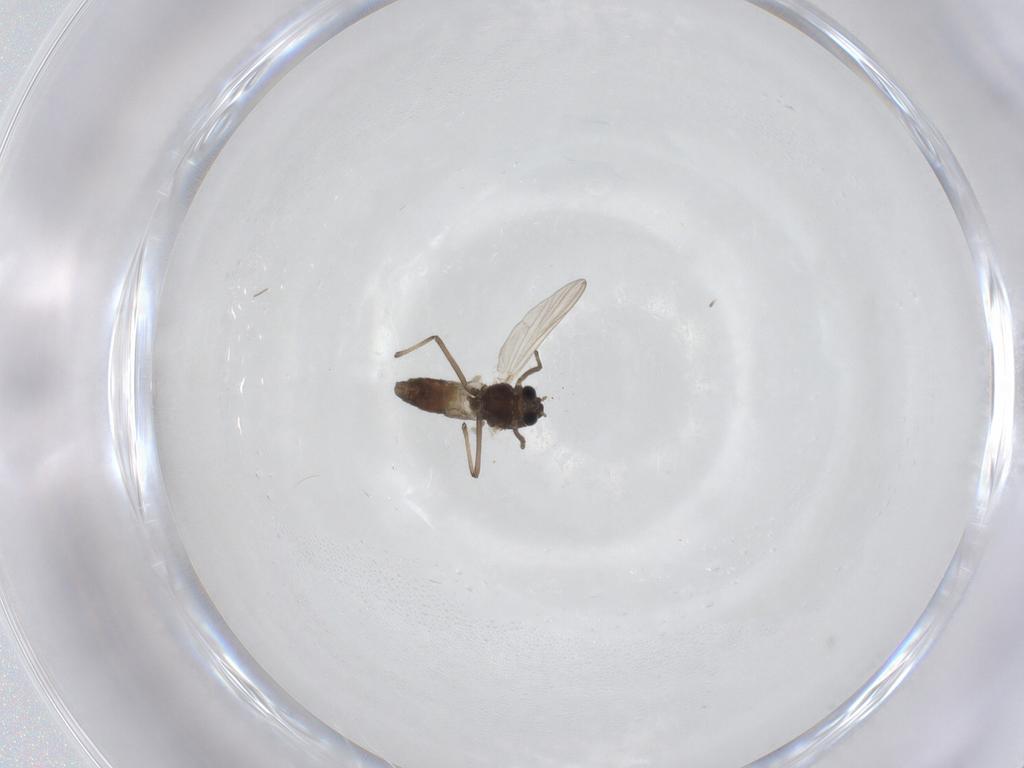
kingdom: Animalia
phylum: Arthropoda
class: Insecta
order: Diptera
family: Chironomidae
